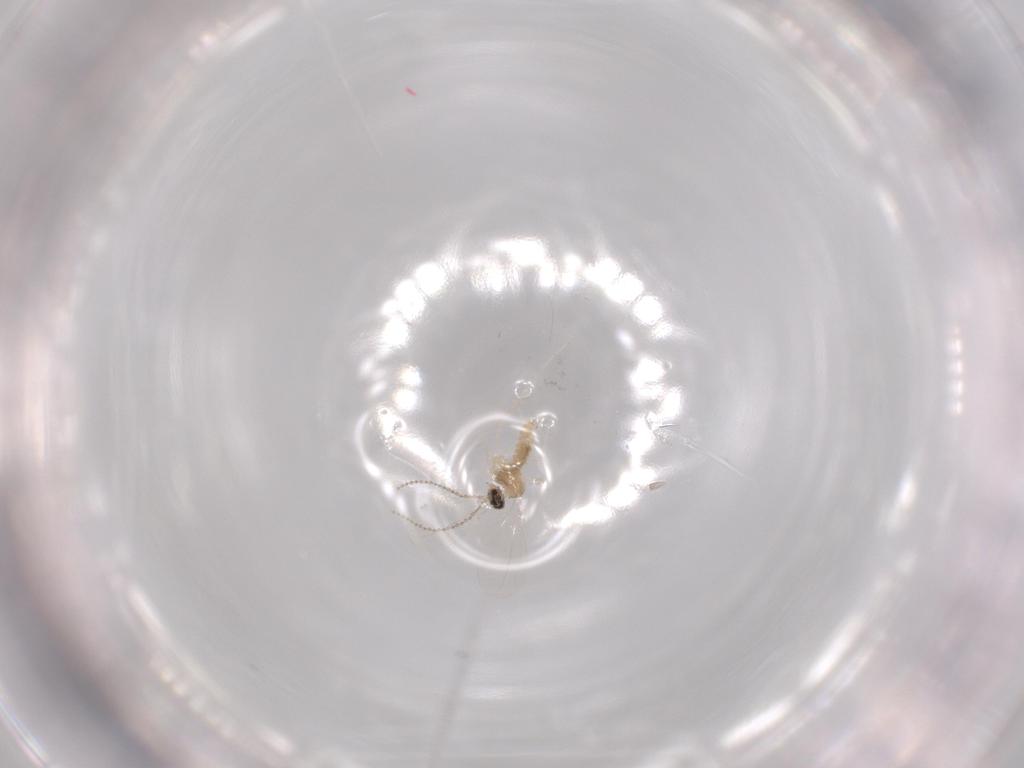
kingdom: Animalia
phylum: Arthropoda
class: Insecta
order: Diptera
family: Cecidomyiidae
